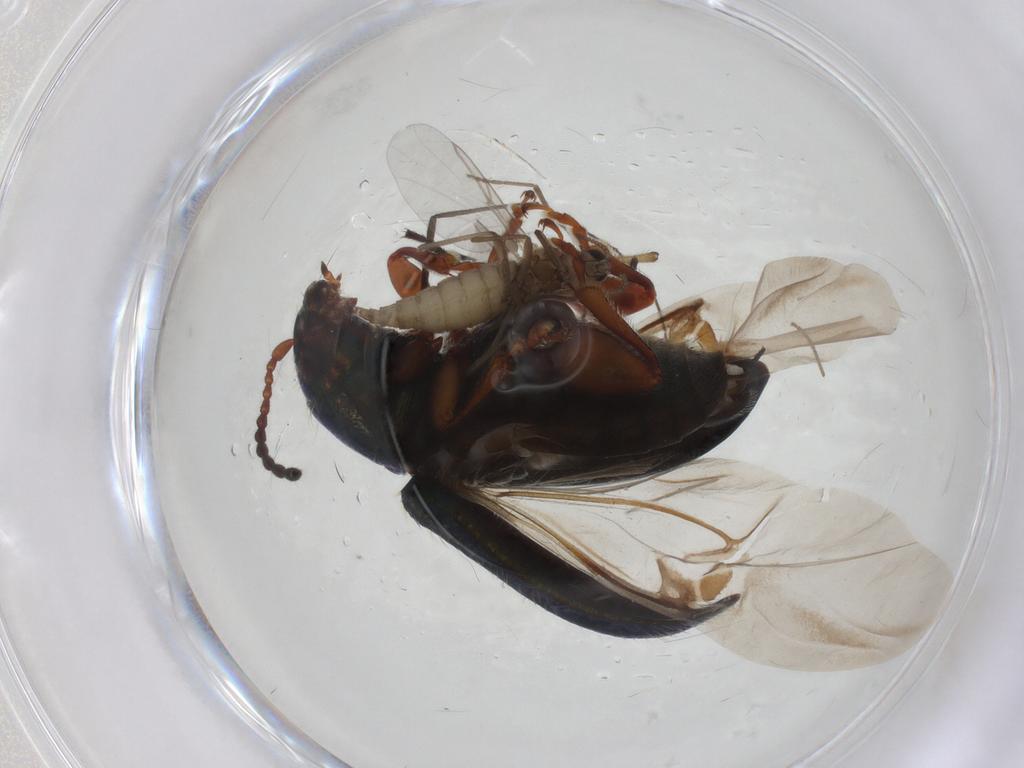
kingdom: Animalia
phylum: Arthropoda
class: Insecta
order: Diptera
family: Cecidomyiidae
